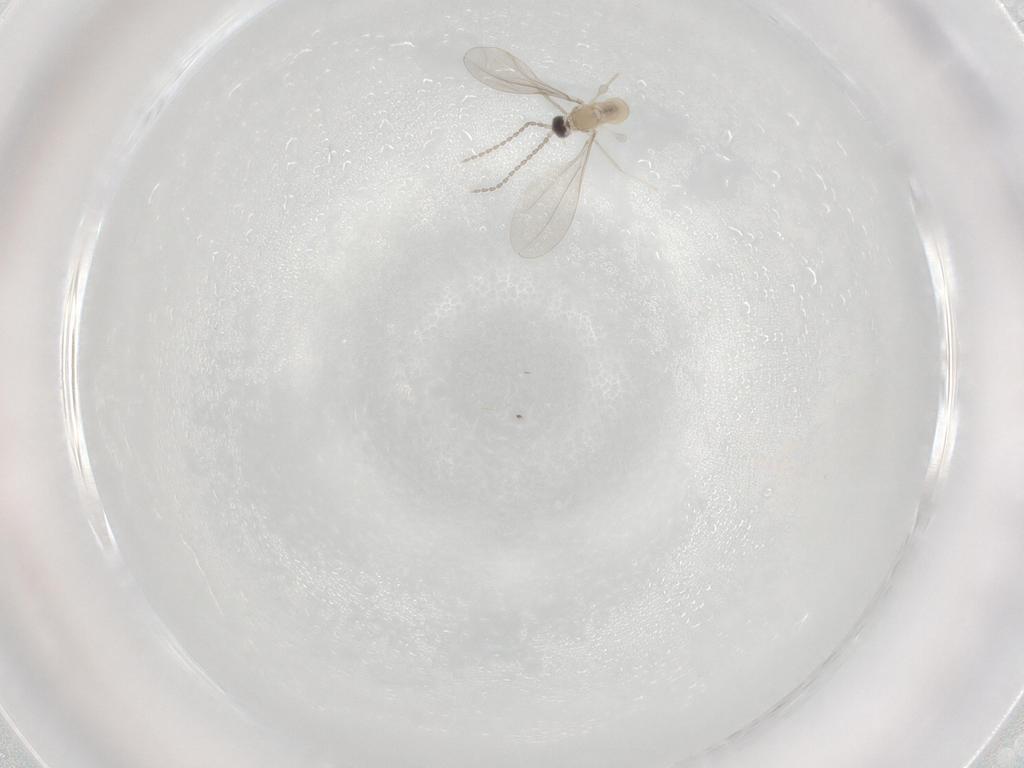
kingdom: Animalia
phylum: Arthropoda
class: Insecta
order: Diptera
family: Cecidomyiidae
